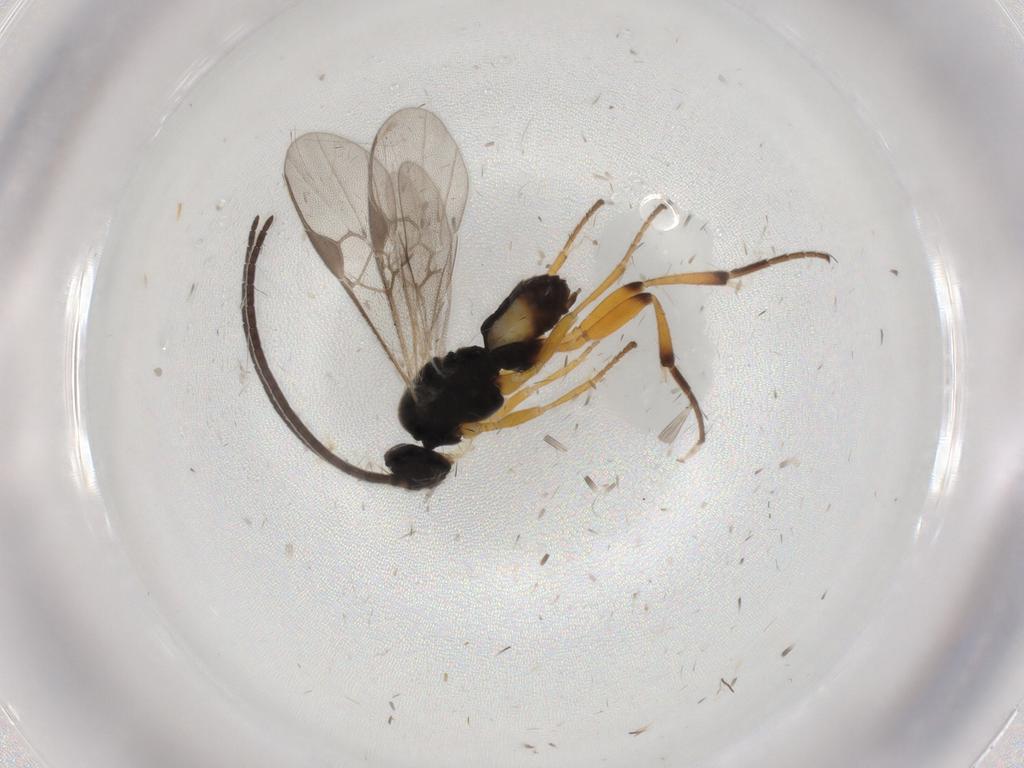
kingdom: Animalia
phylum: Arthropoda
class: Insecta
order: Hymenoptera
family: Braconidae
